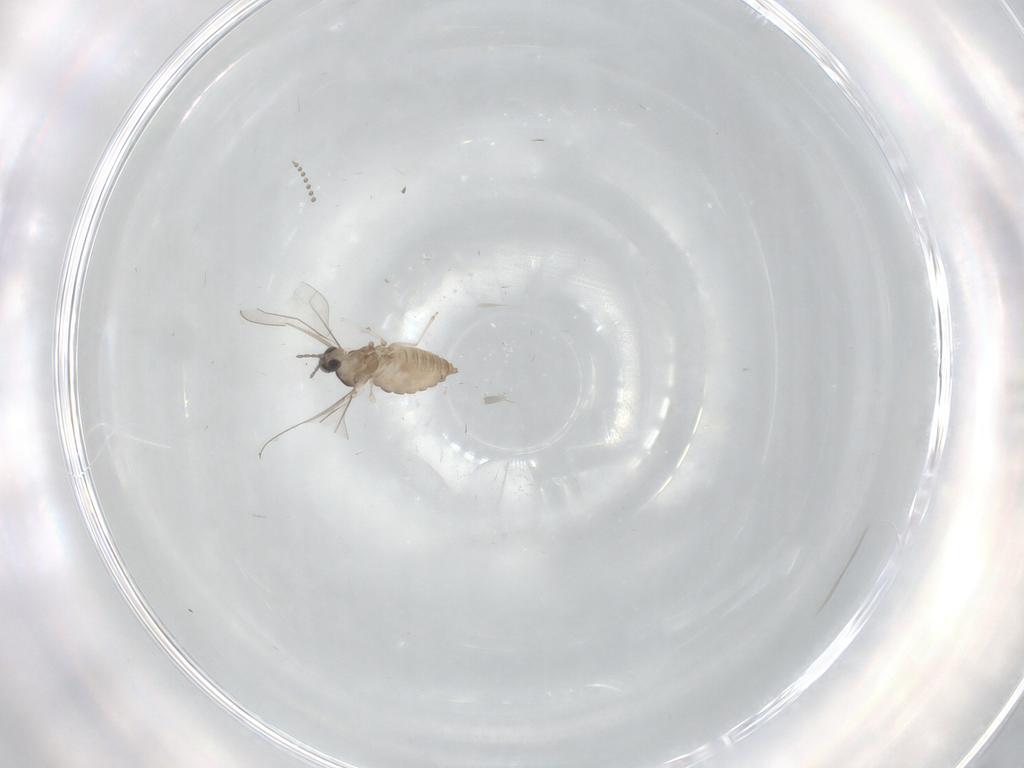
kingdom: Animalia
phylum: Arthropoda
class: Insecta
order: Diptera
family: Cecidomyiidae
